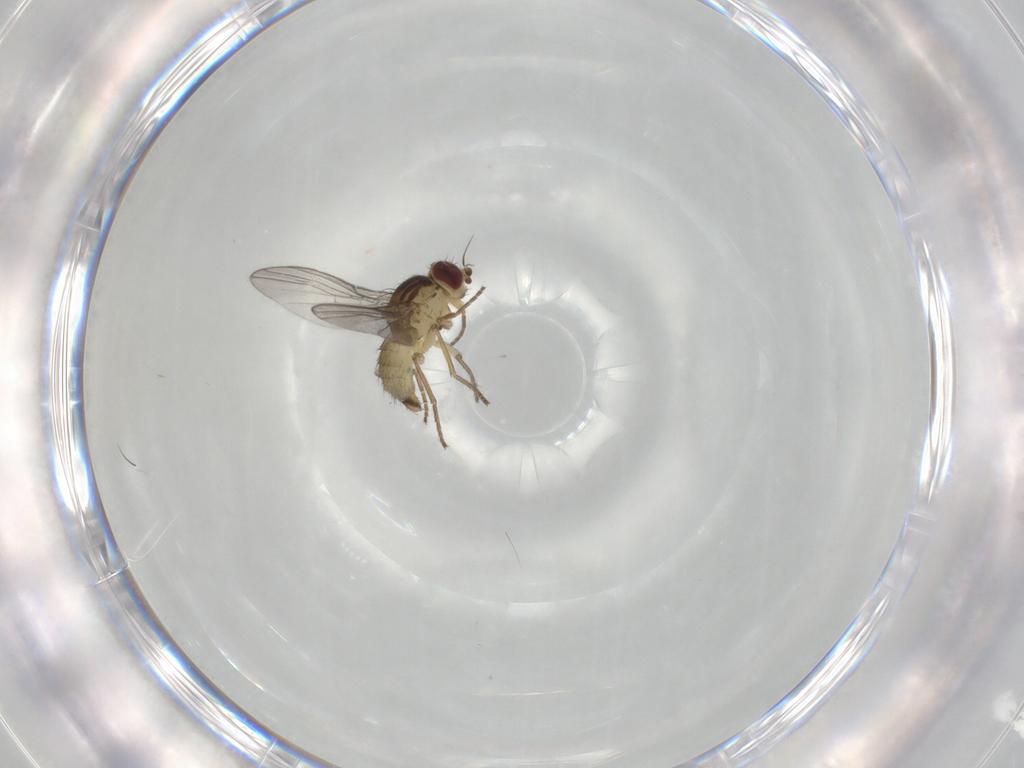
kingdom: Animalia
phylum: Arthropoda
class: Insecta
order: Diptera
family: Agromyzidae
